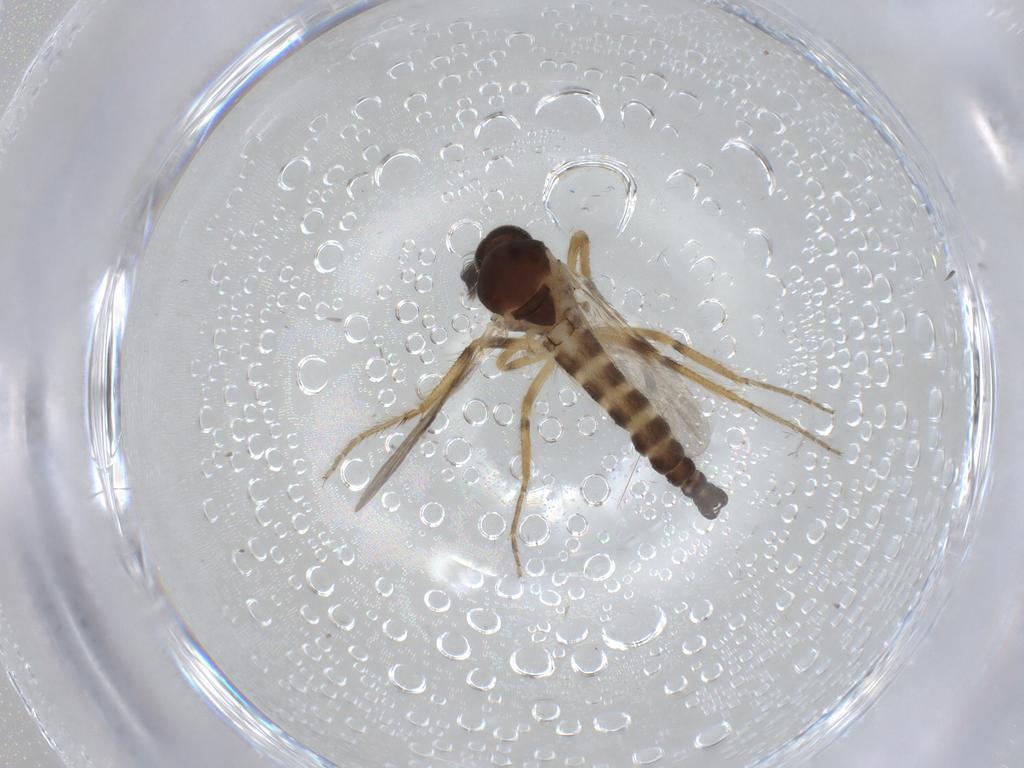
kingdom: Animalia
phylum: Arthropoda
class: Insecta
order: Diptera
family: Ceratopogonidae
